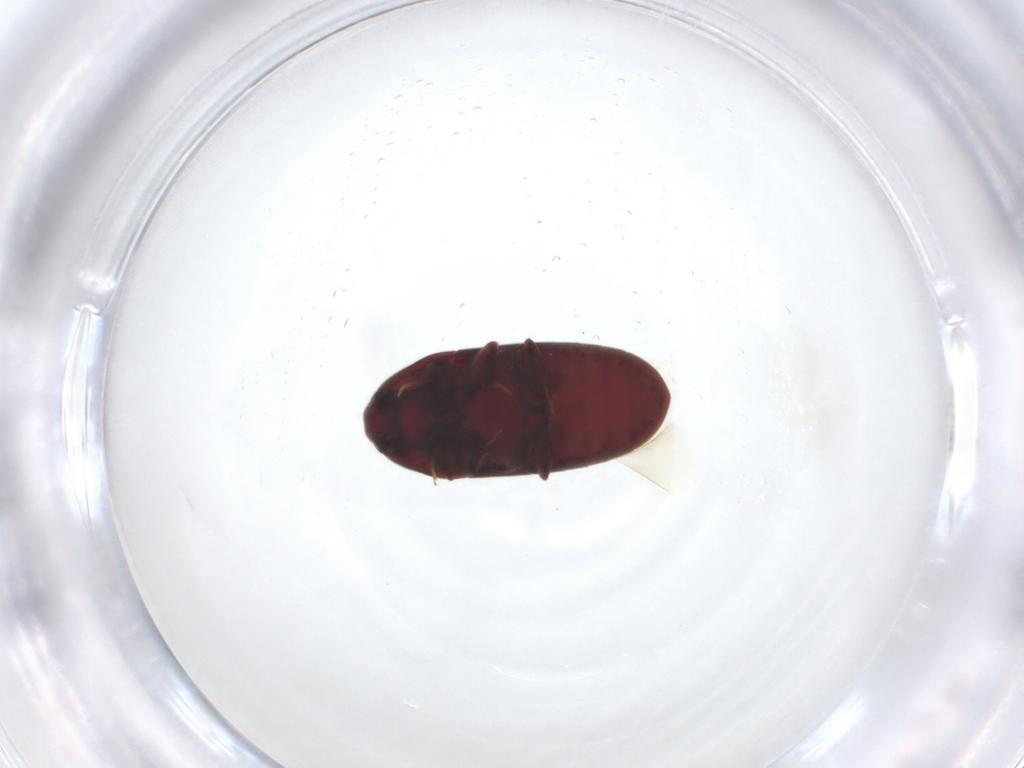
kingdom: Animalia
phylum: Arthropoda
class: Insecta
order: Coleoptera
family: Throscidae
